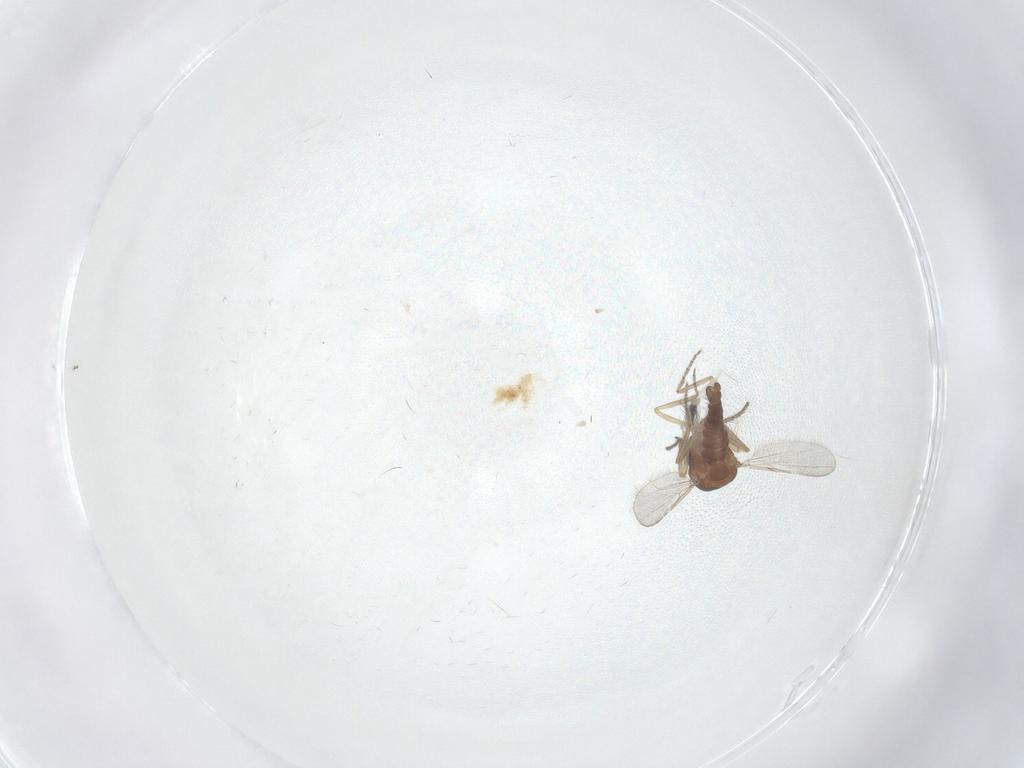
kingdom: Animalia
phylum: Arthropoda
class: Insecta
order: Diptera
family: Ceratopogonidae
